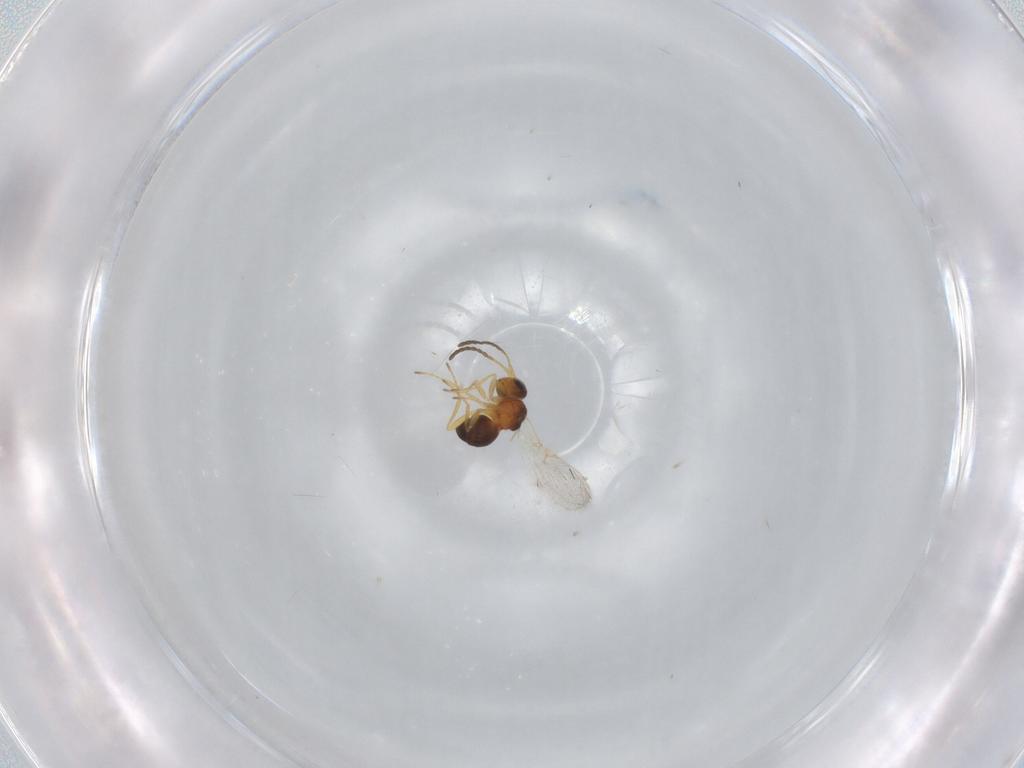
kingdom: Animalia
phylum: Arthropoda
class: Insecta
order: Hymenoptera
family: Figitidae
